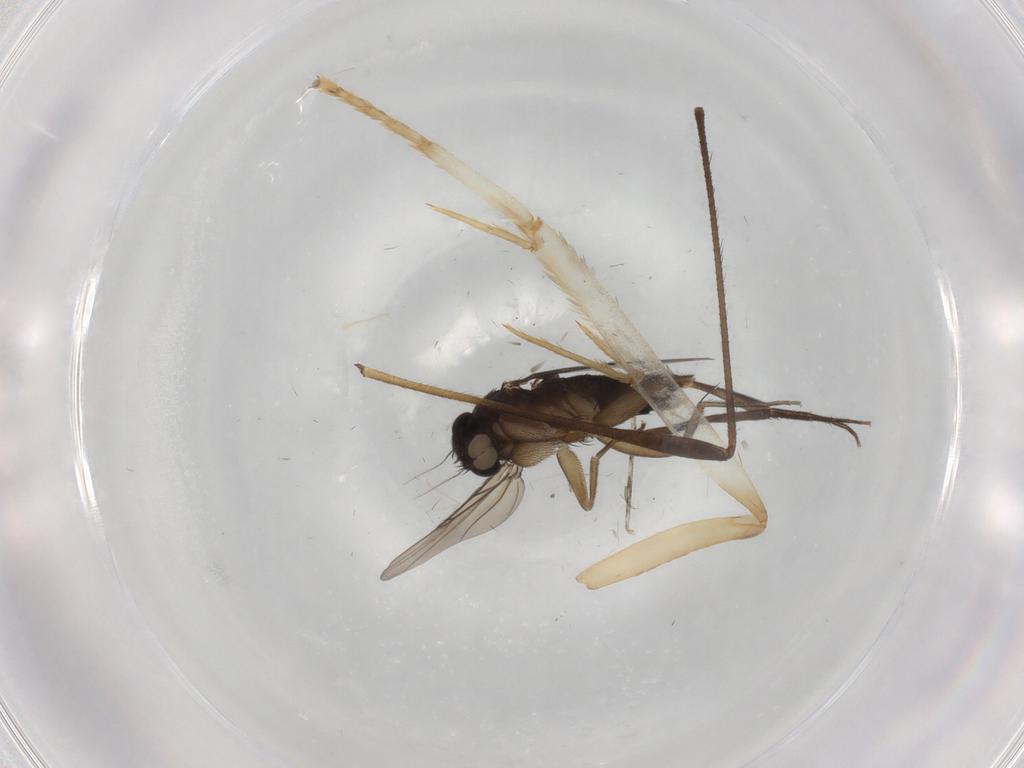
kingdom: Animalia
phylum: Arthropoda
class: Insecta
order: Diptera
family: Phoridae
